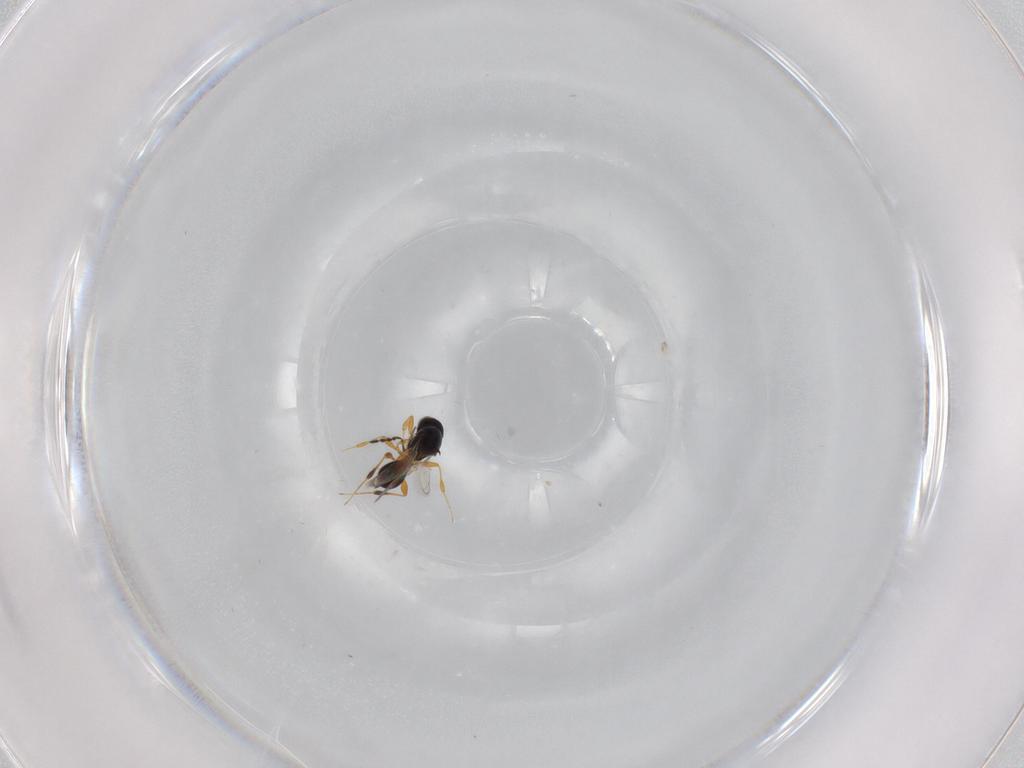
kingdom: Animalia
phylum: Arthropoda
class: Insecta
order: Hymenoptera
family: Platygastridae
